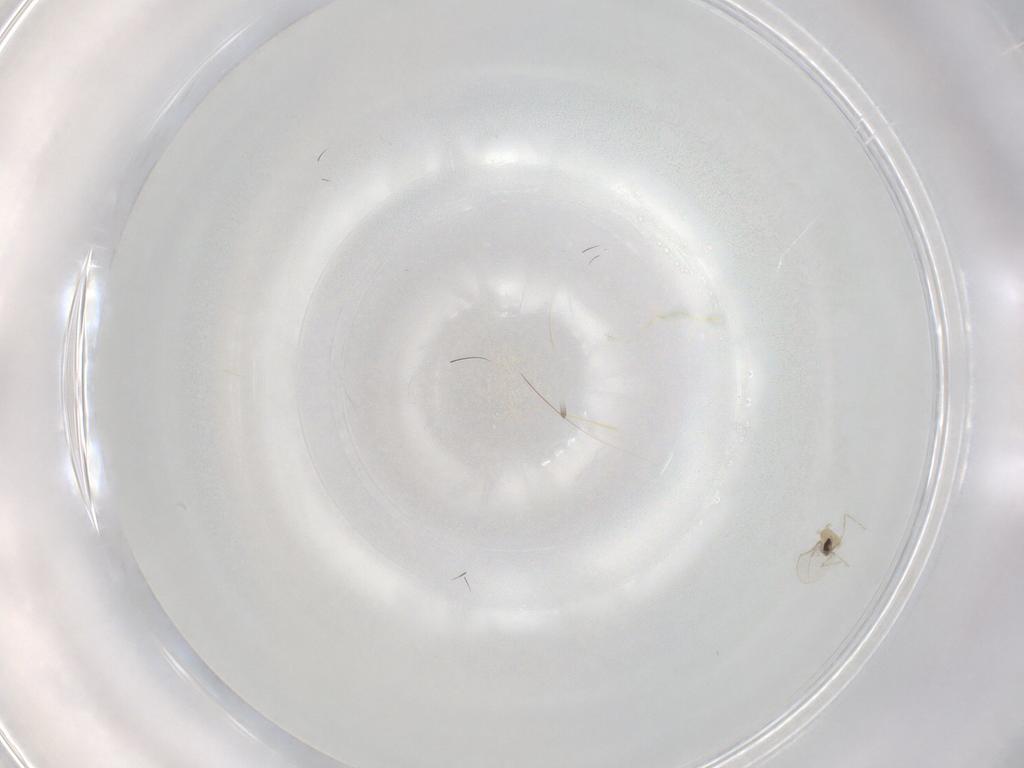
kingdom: Animalia
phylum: Arthropoda
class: Insecta
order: Diptera
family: Cecidomyiidae
